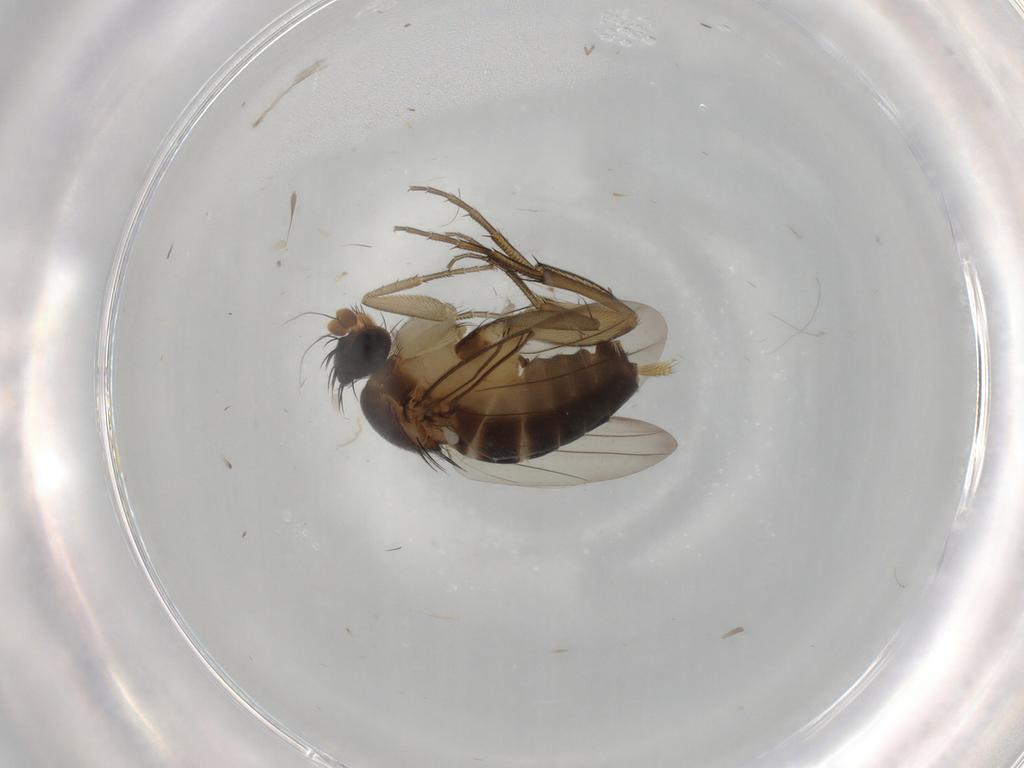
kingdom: Animalia
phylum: Arthropoda
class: Insecta
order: Diptera
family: Phoridae
